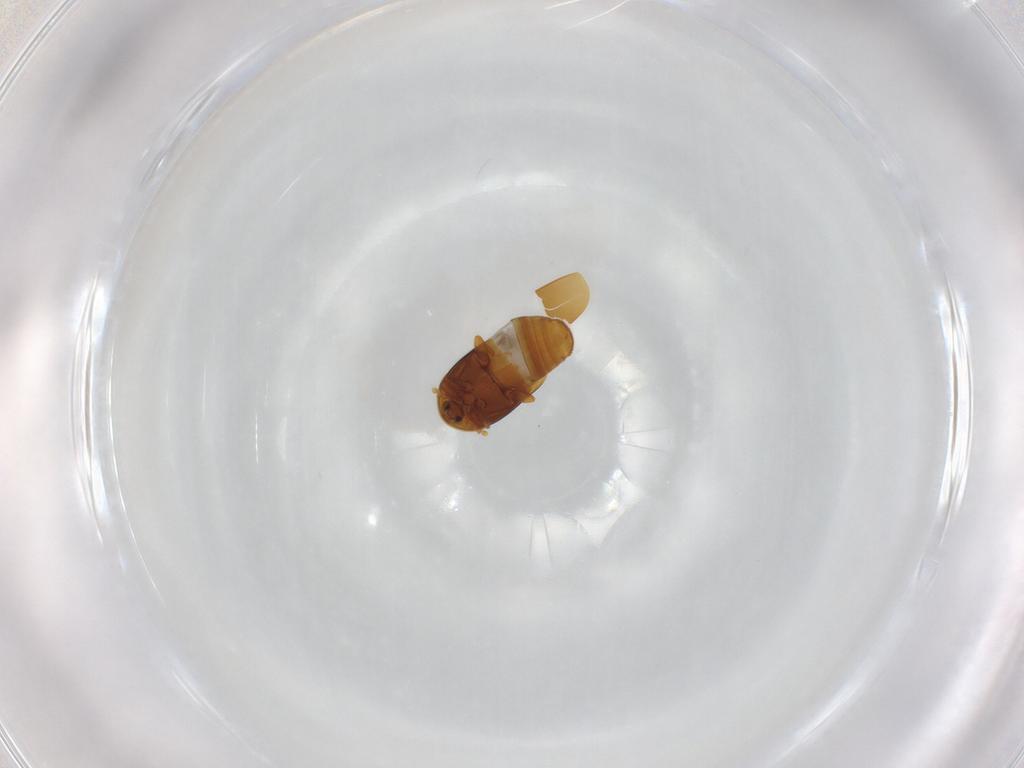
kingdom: Animalia
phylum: Arthropoda
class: Insecta
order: Coleoptera
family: Corylophidae
